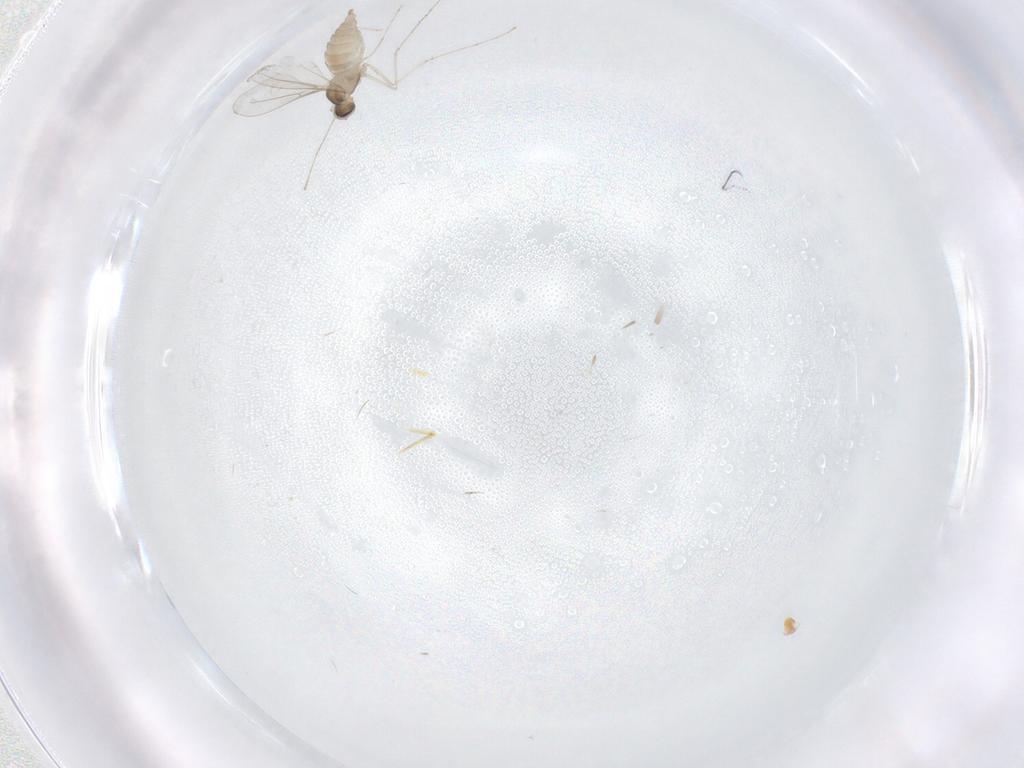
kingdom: Animalia
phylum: Arthropoda
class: Insecta
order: Diptera
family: Cecidomyiidae
